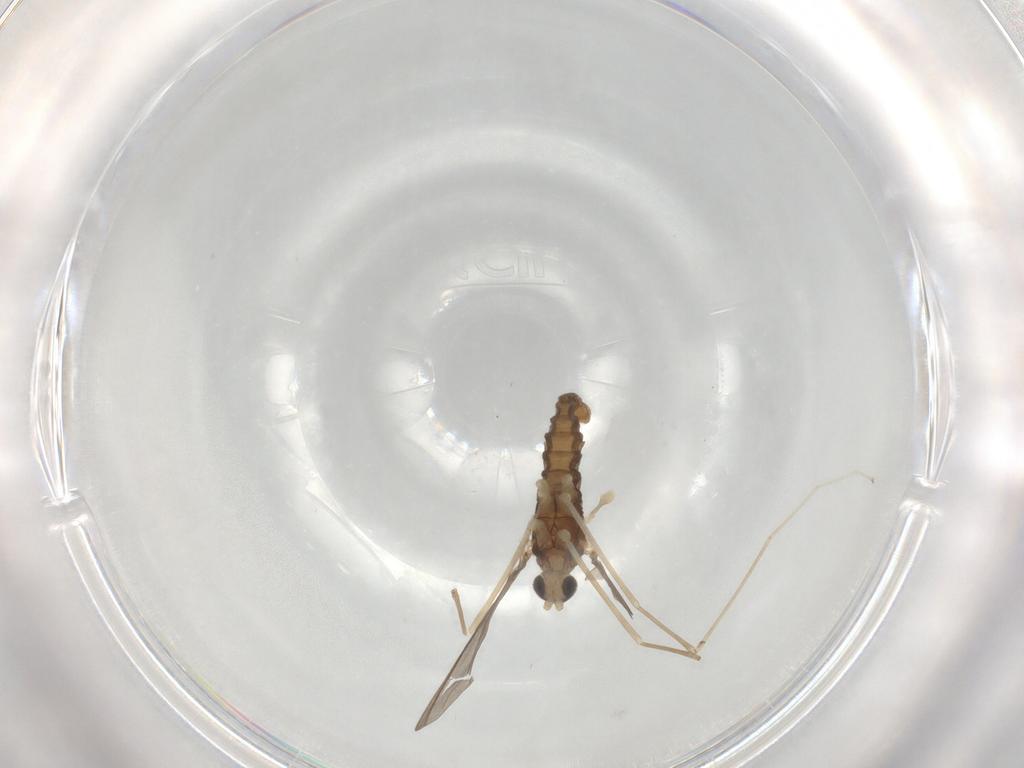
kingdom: Animalia
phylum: Arthropoda
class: Insecta
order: Diptera
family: Cecidomyiidae
